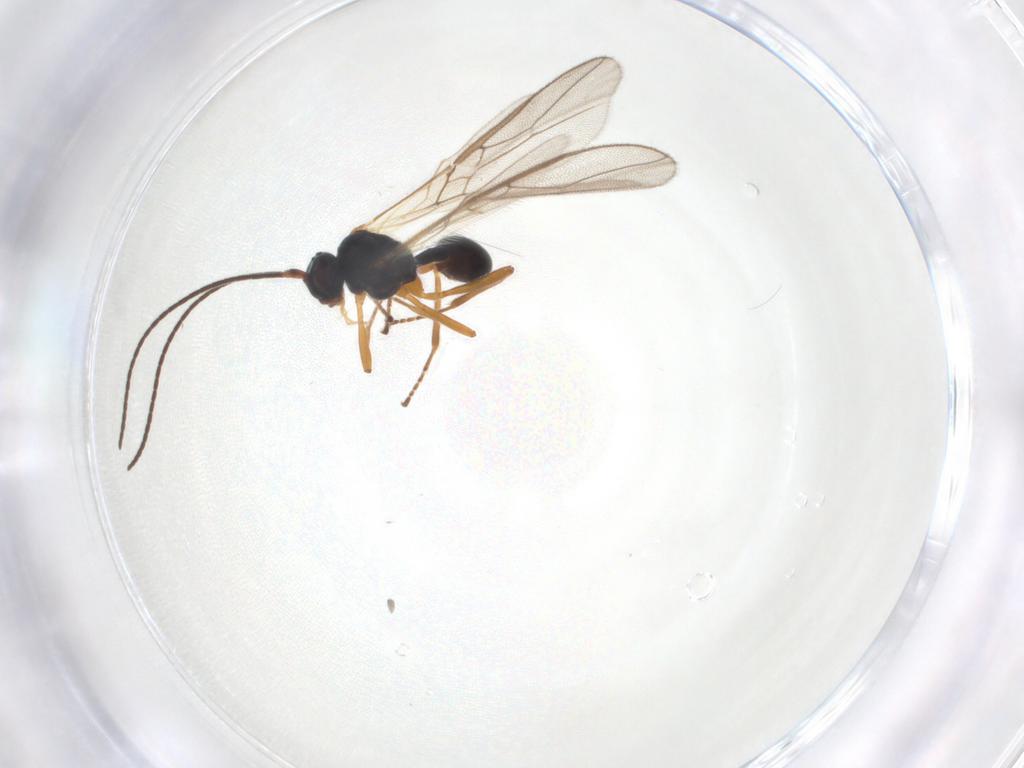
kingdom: Animalia
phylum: Arthropoda
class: Insecta
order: Hymenoptera
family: Braconidae
